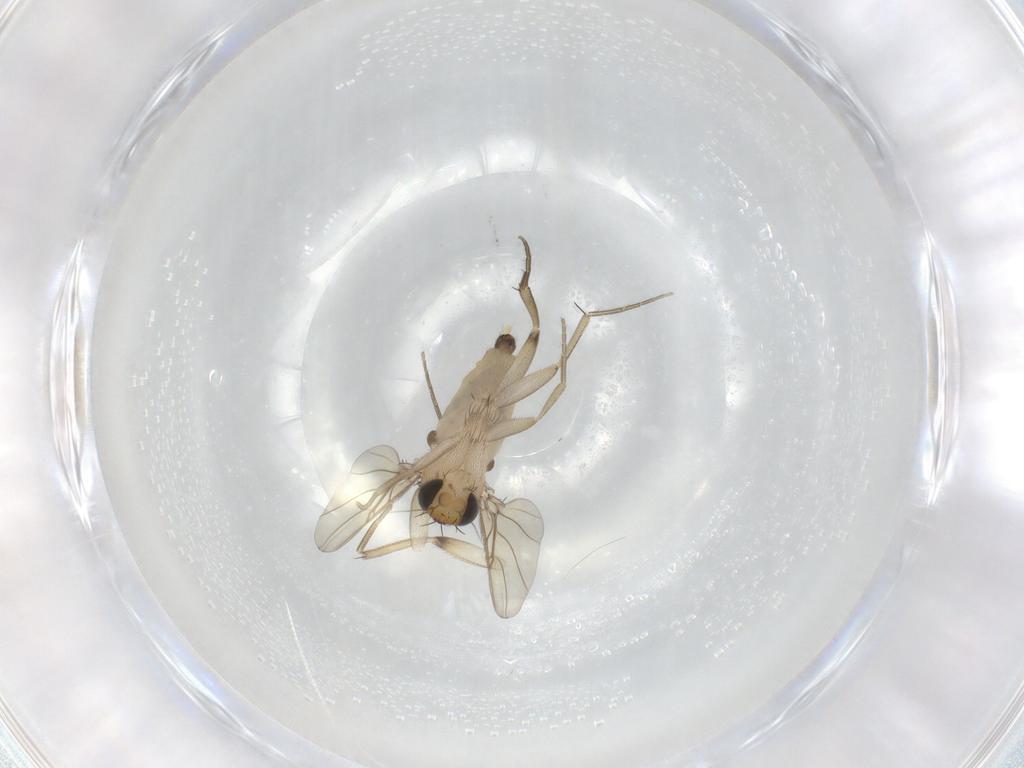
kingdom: Animalia
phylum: Arthropoda
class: Insecta
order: Diptera
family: Phoridae
